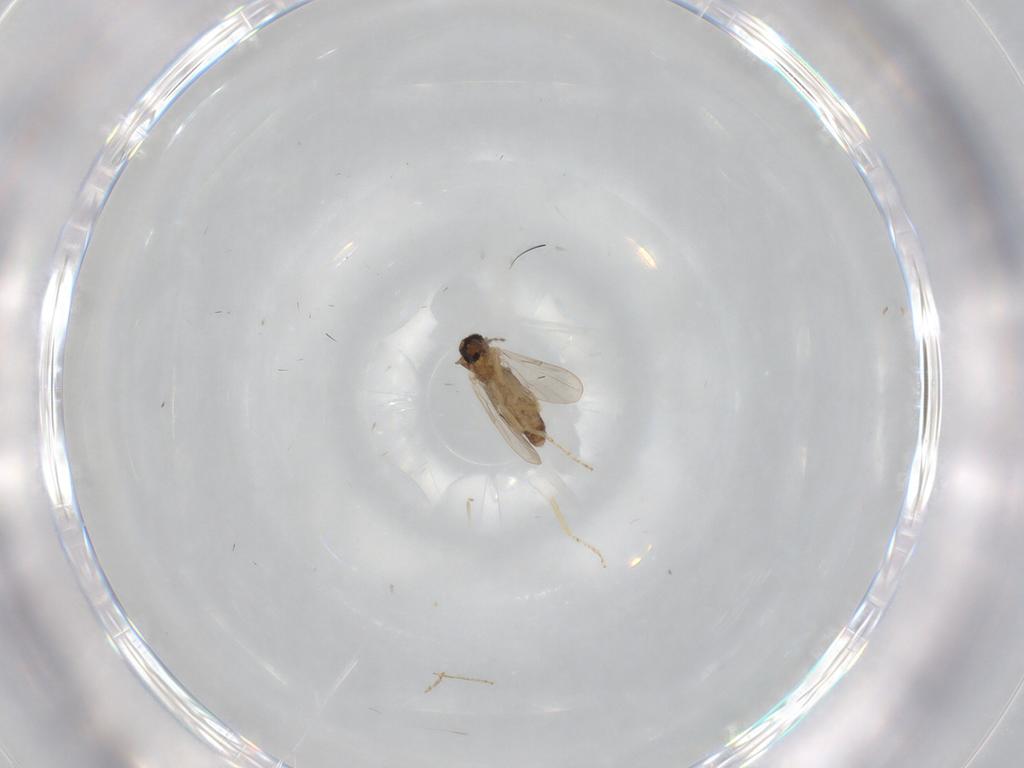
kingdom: Animalia
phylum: Arthropoda
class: Insecta
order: Diptera
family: Ceratopogonidae
